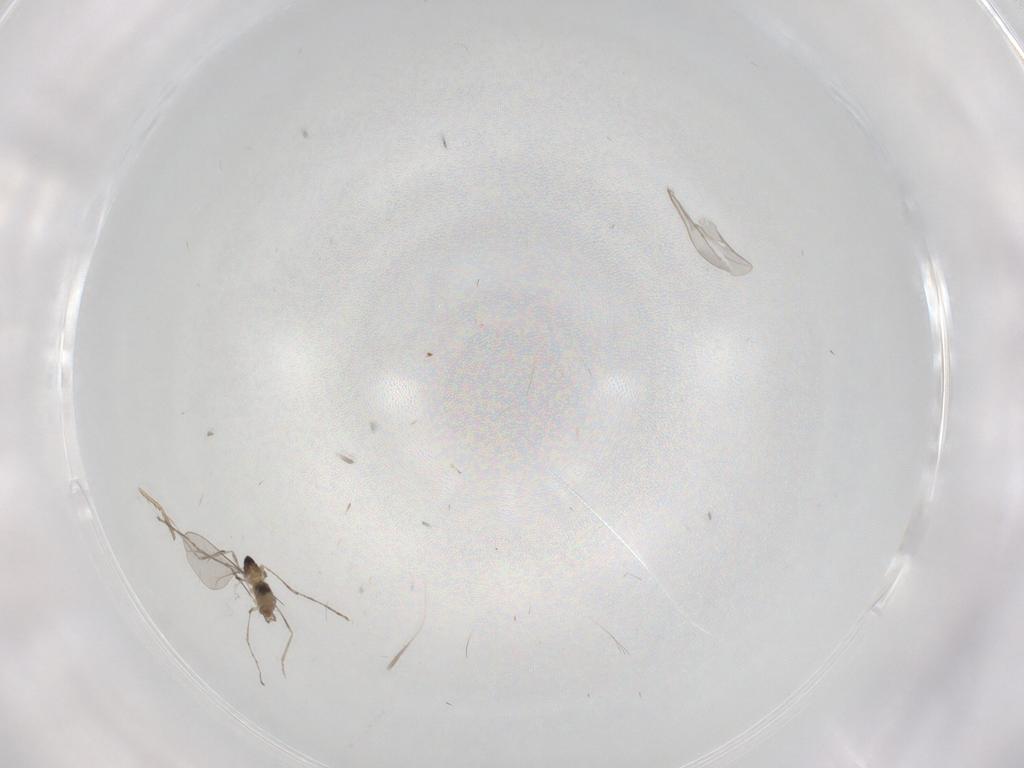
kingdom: Animalia
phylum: Arthropoda
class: Insecta
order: Diptera
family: Cecidomyiidae
